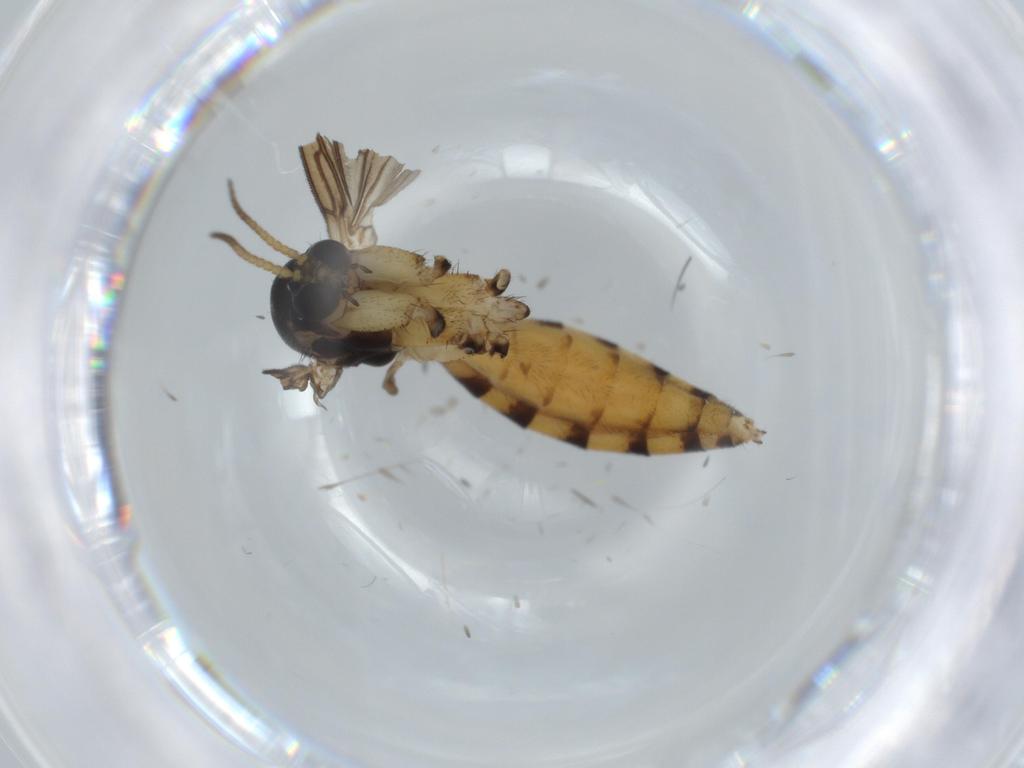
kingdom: Animalia
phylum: Arthropoda
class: Insecta
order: Diptera
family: Mycetophilidae
